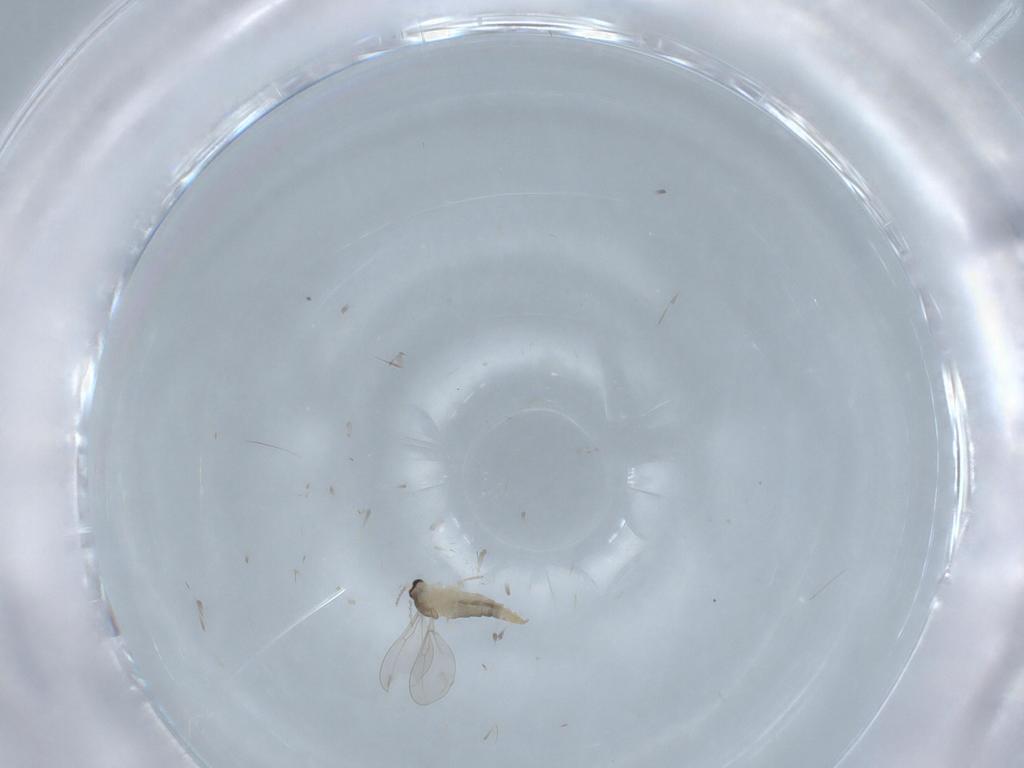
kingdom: Animalia
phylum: Arthropoda
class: Insecta
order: Diptera
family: Cecidomyiidae
